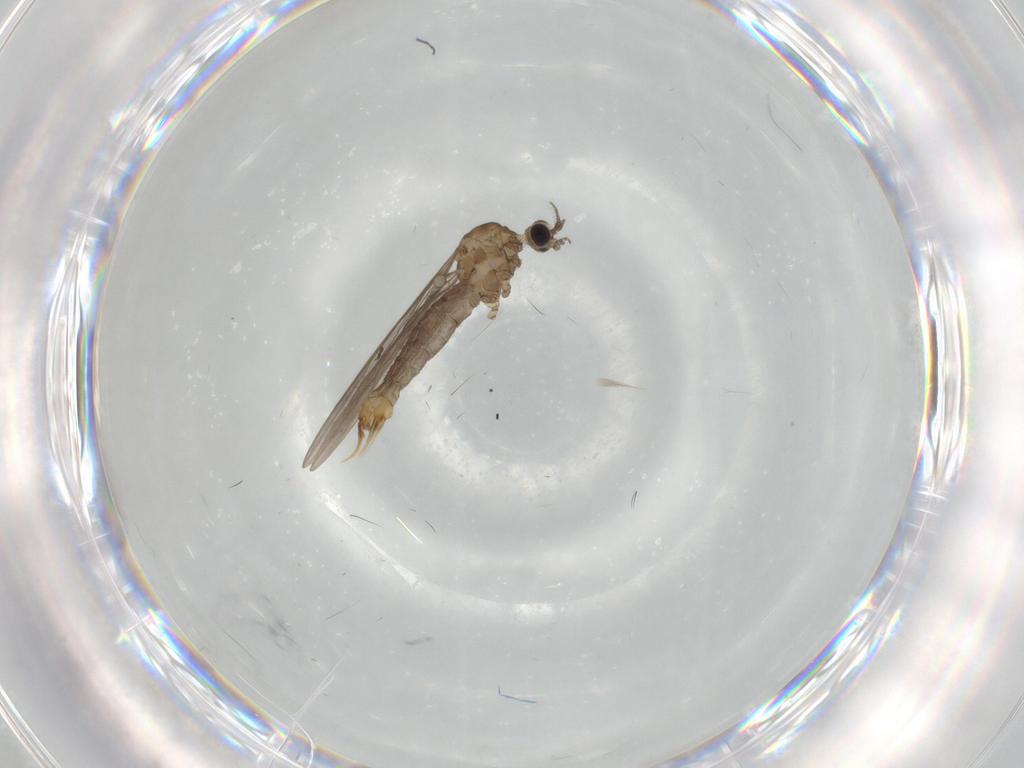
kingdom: Animalia
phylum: Arthropoda
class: Insecta
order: Diptera
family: Limoniidae
